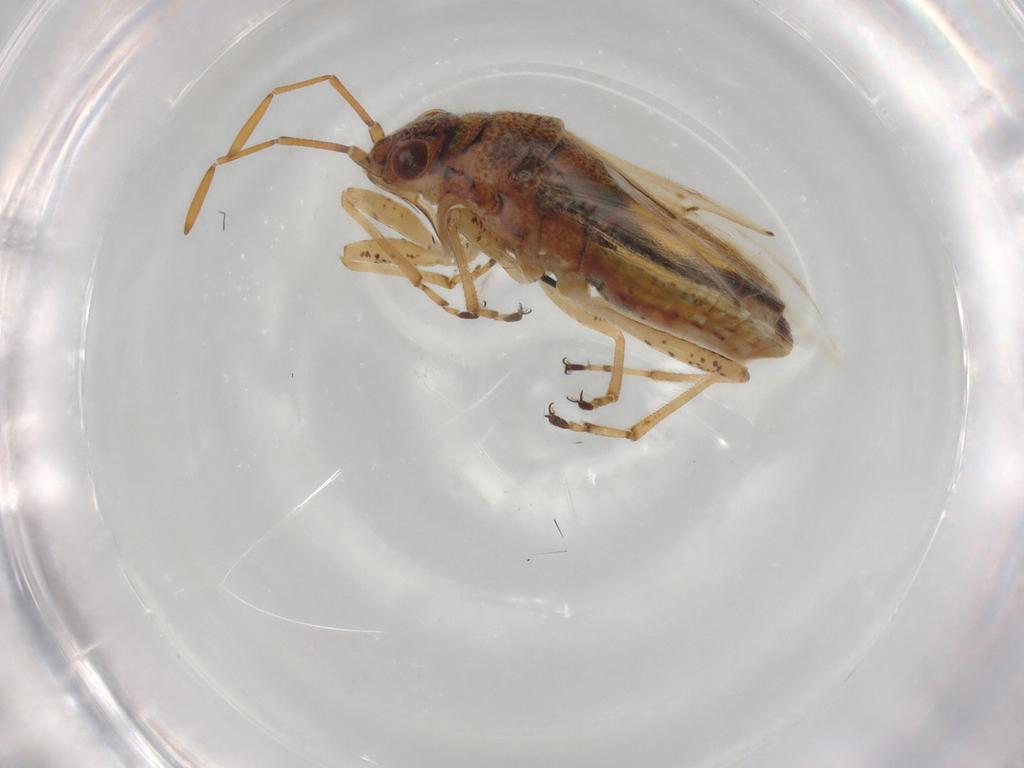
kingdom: Animalia
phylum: Arthropoda
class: Insecta
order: Hemiptera
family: Lygaeidae
